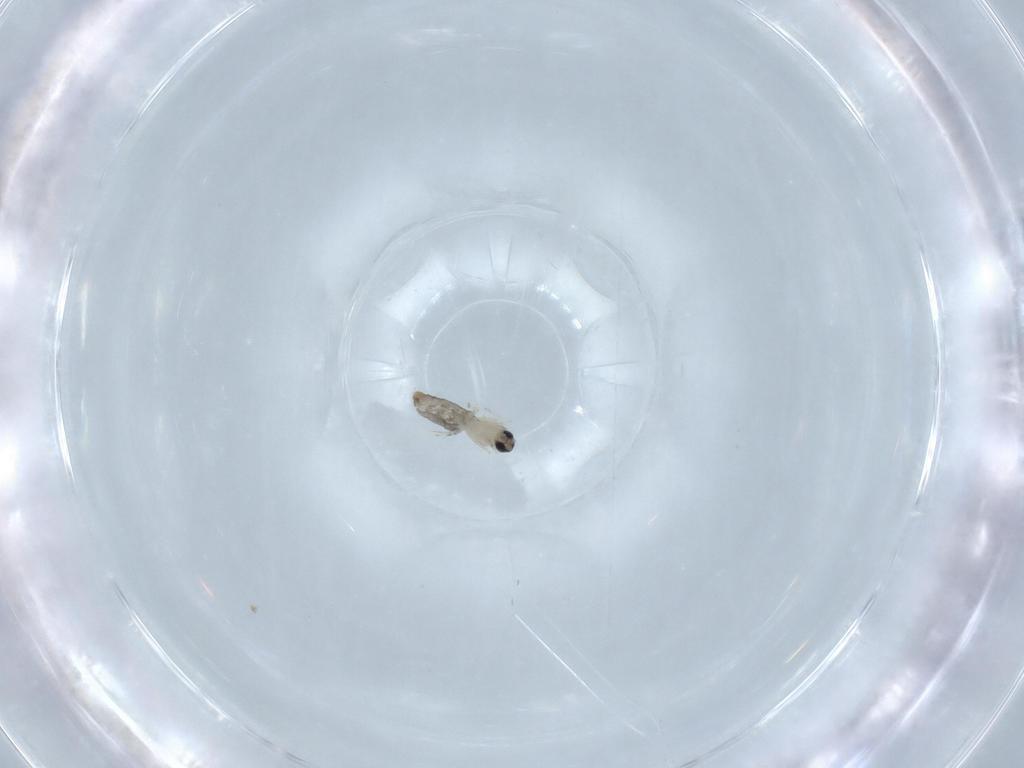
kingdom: Animalia
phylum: Arthropoda
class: Insecta
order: Diptera
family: Cecidomyiidae
